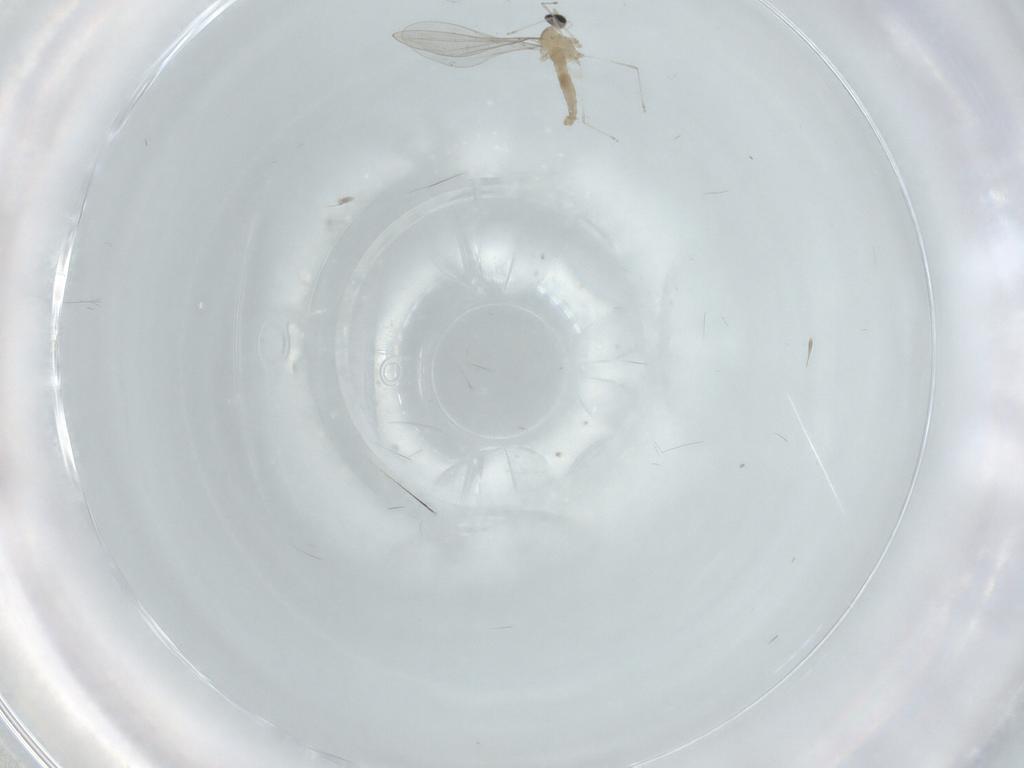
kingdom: Animalia
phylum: Arthropoda
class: Insecta
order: Diptera
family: Cecidomyiidae
